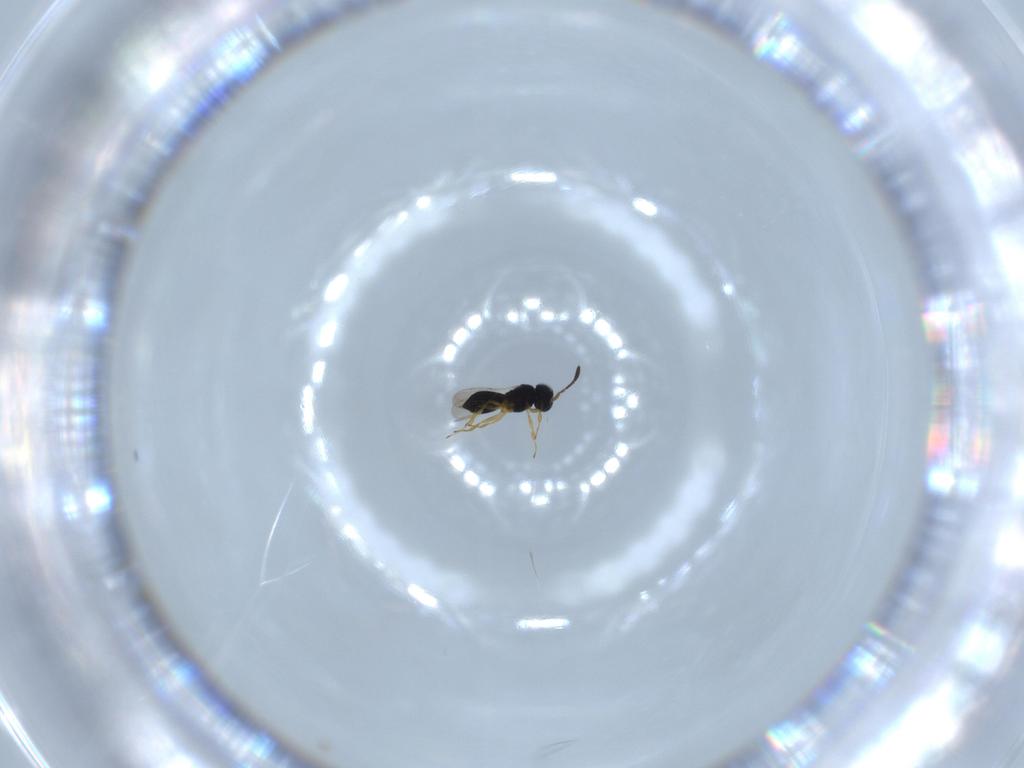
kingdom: Animalia
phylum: Arthropoda
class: Insecta
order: Hymenoptera
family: Scelionidae
